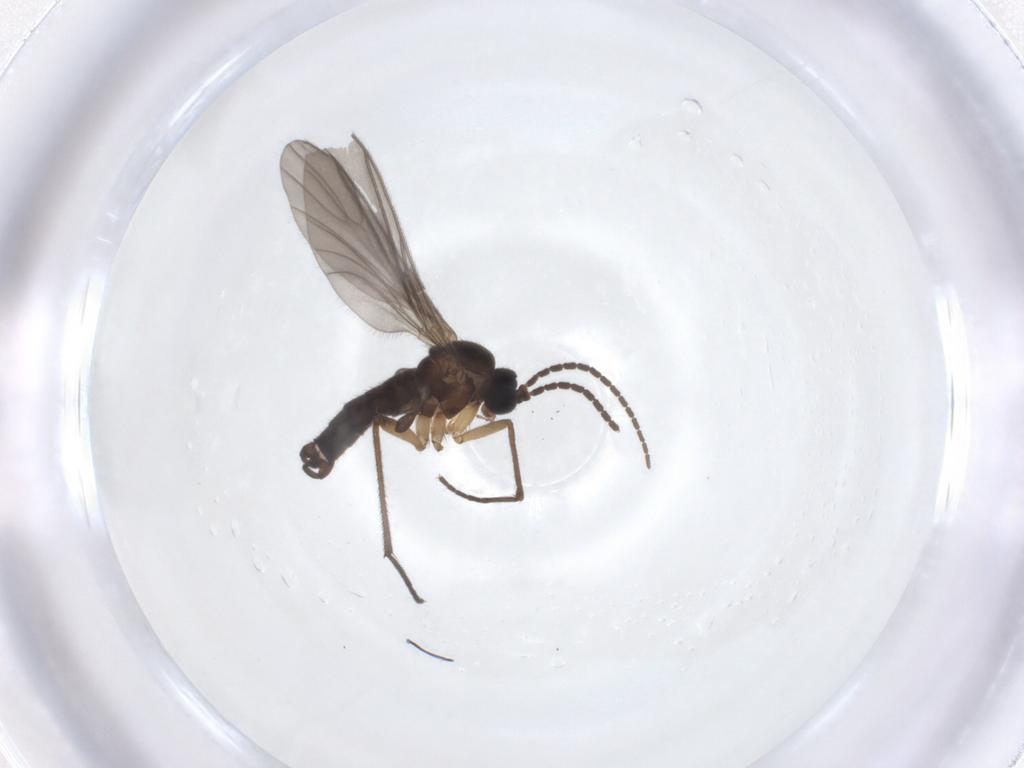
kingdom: Animalia
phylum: Arthropoda
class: Insecta
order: Diptera
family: Sciaridae
